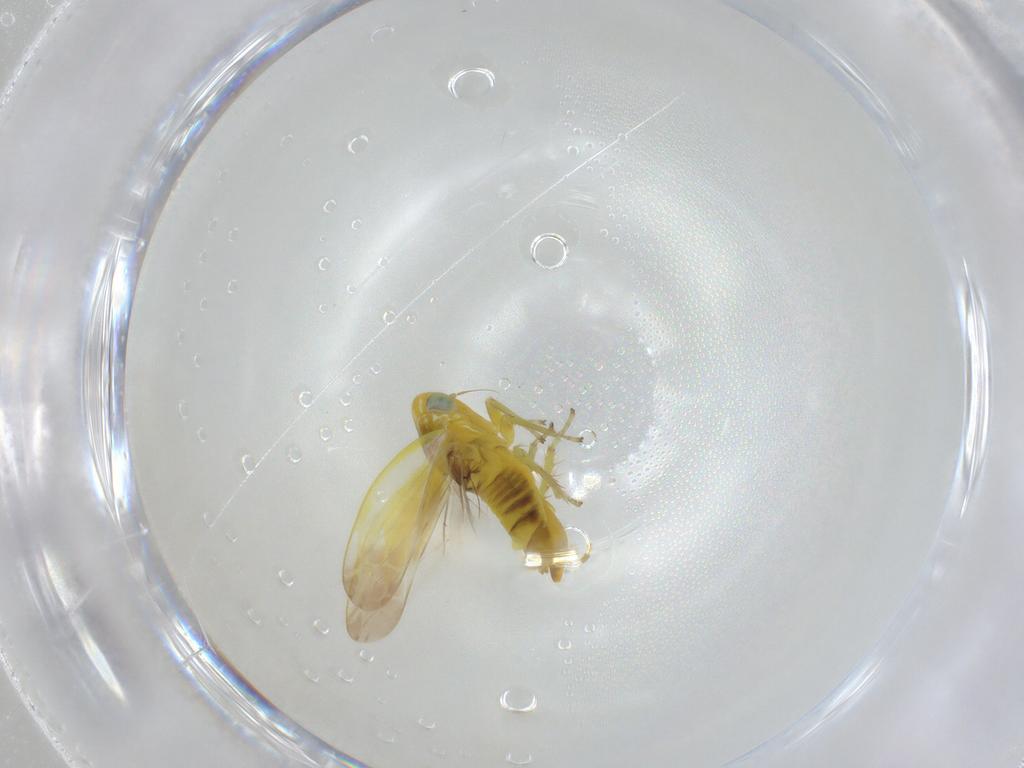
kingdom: Animalia
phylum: Arthropoda
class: Insecta
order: Hemiptera
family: Cicadellidae
